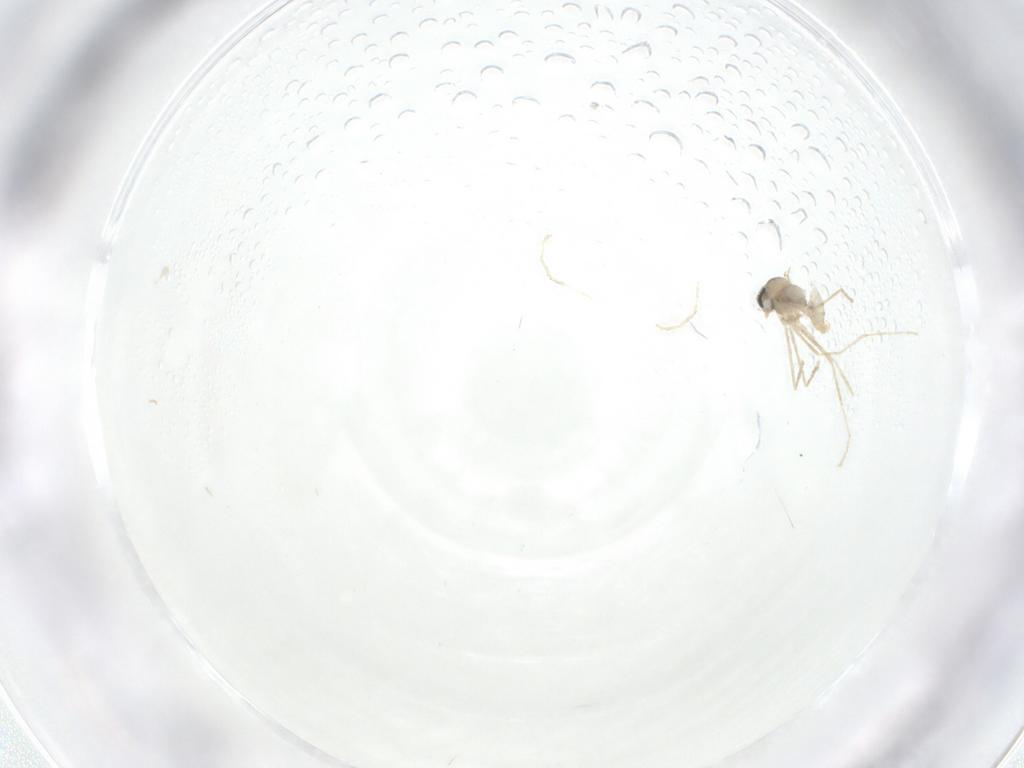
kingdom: Animalia
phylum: Arthropoda
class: Insecta
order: Diptera
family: Cecidomyiidae
